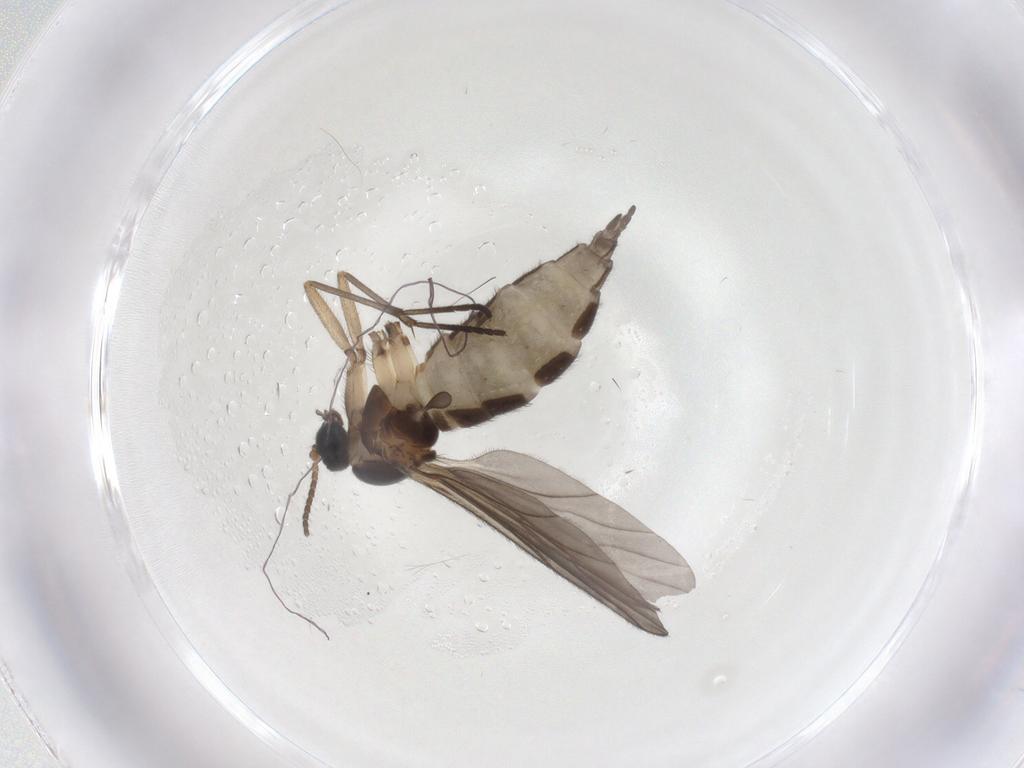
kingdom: Animalia
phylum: Arthropoda
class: Insecta
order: Diptera
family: Sciaridae
